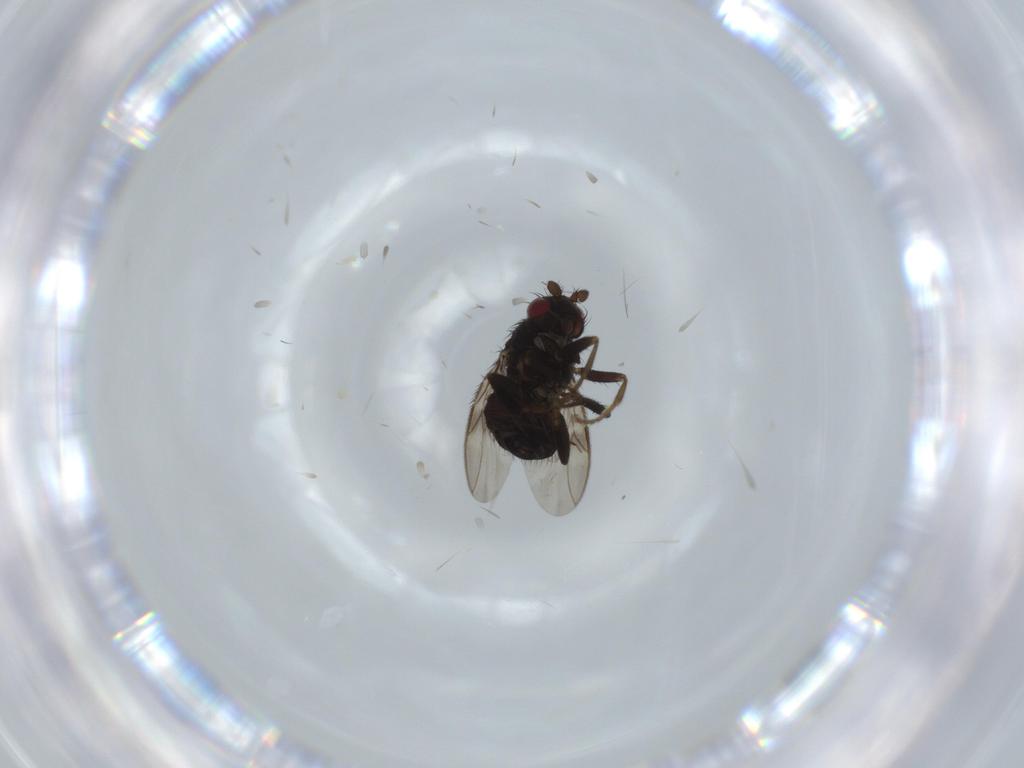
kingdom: Animalia
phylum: Arthropoda
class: Insecta
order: Diptera
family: Sphaeroceridae
